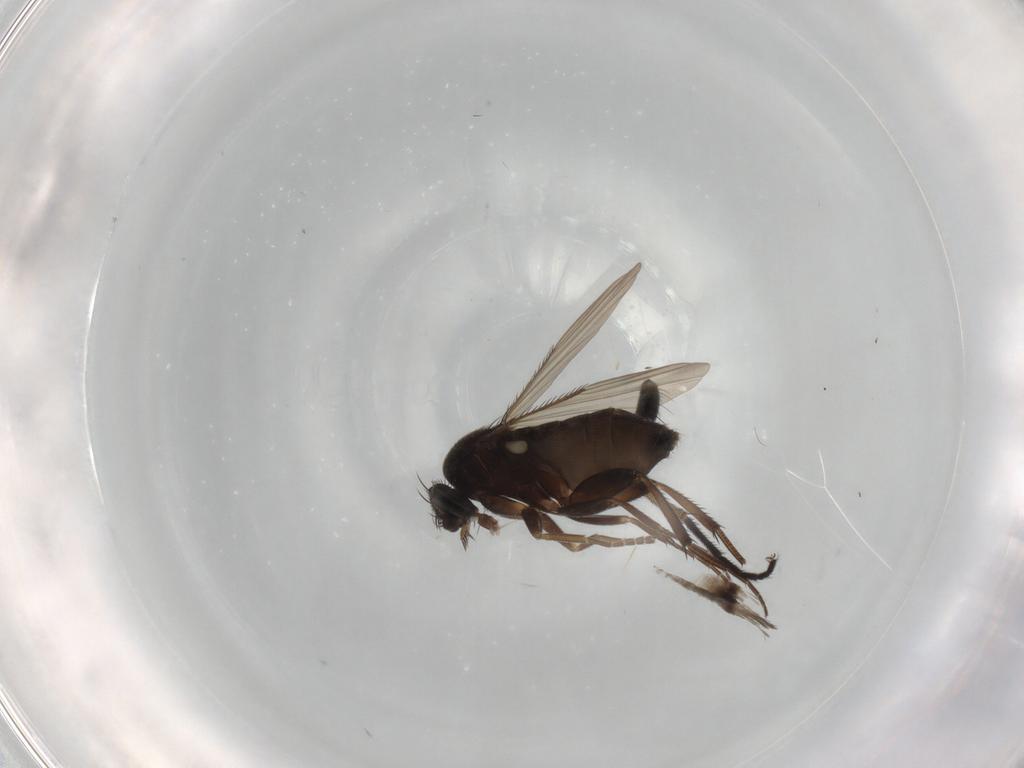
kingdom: Animalia
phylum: Arthropoda
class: Insecta
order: Diptera
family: Phoridae
